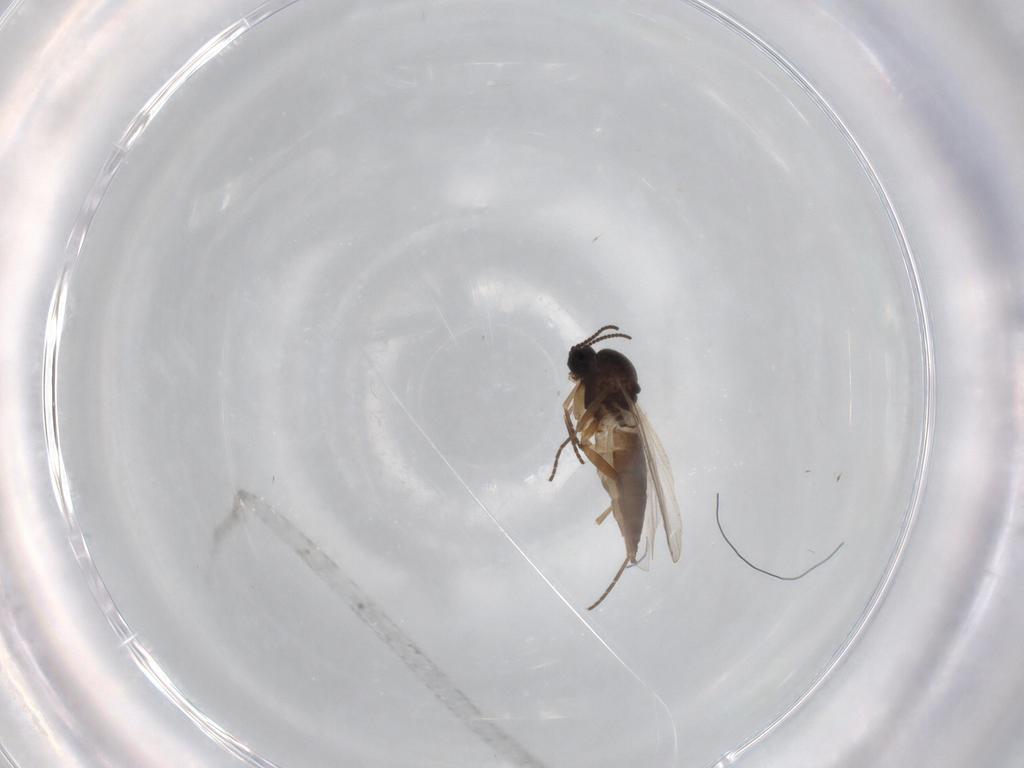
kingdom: Animalia
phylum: Arthropoda
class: Insecta
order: Diptera
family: Sciaridae
